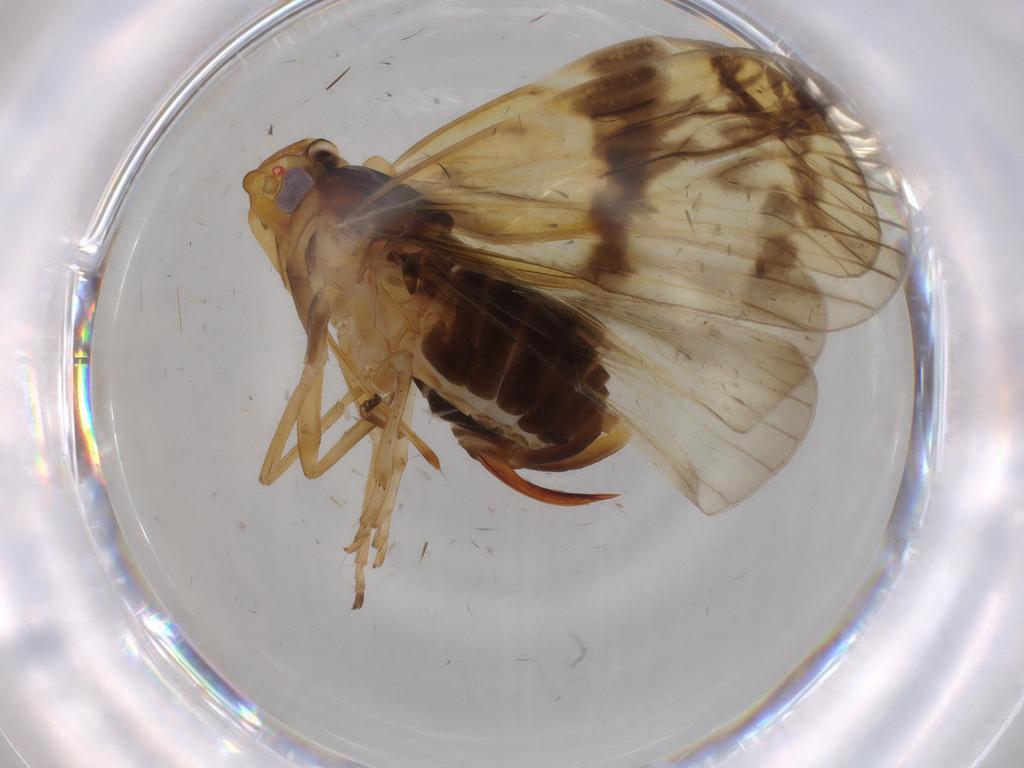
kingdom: Animalia
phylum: Arthropoda
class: Insecta
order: Hemiptera
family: Cixiidae
